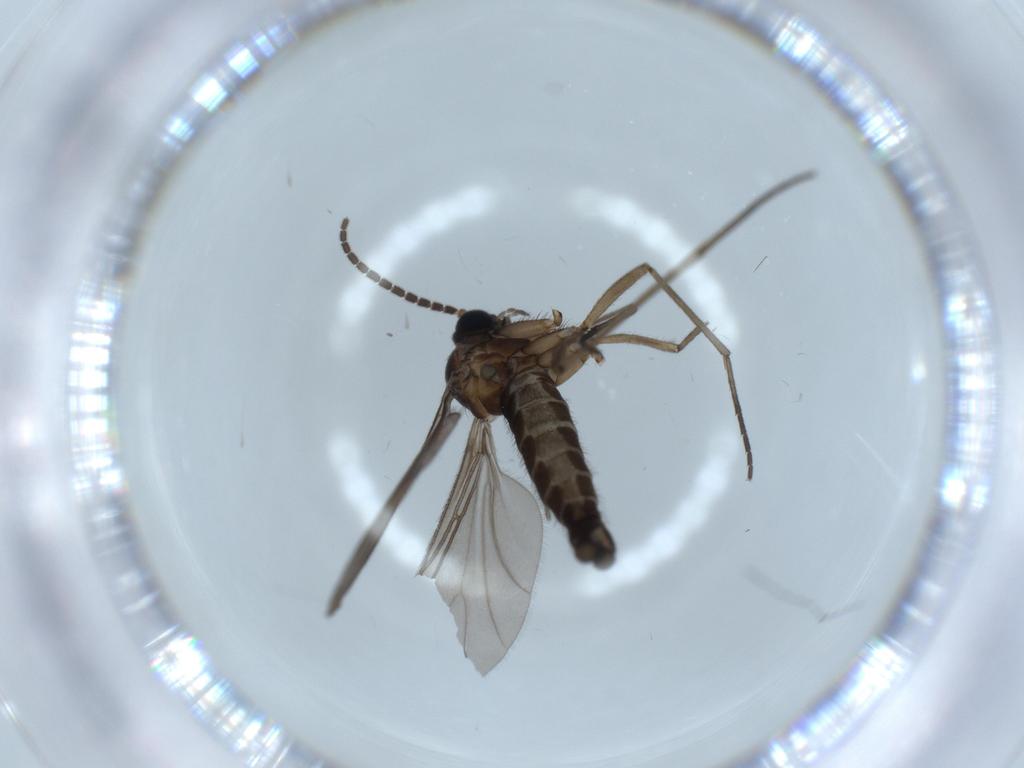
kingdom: Animalia
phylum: Arthropoda
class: Insecta
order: Diptera
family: Sciaridae
